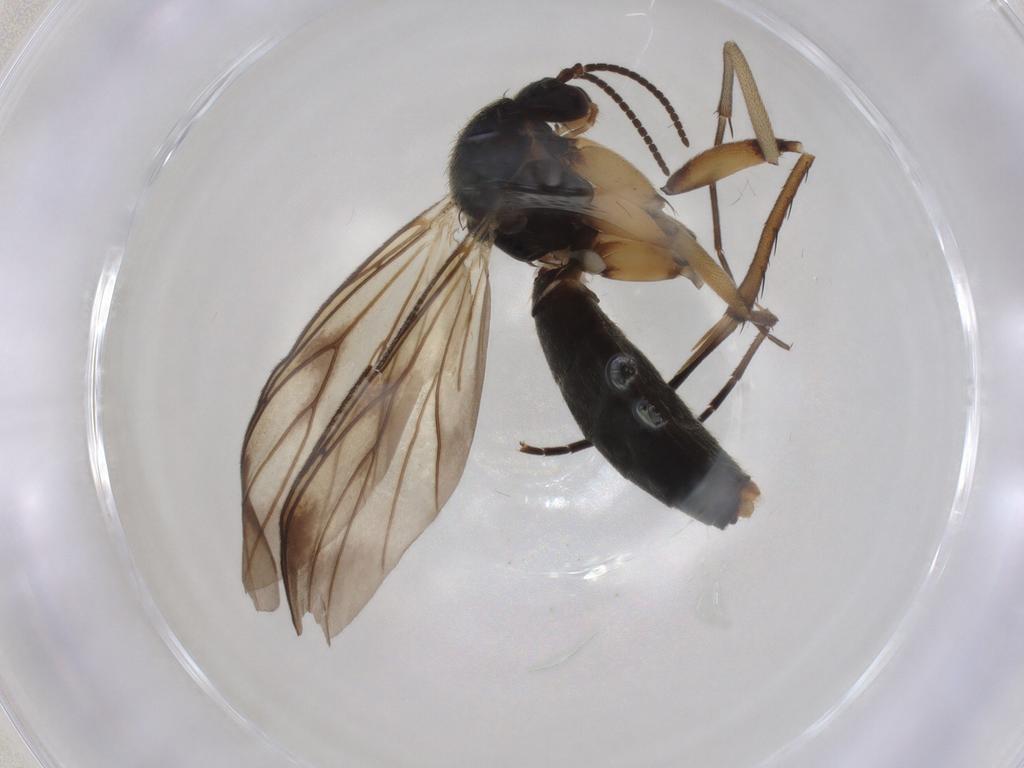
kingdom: Animalia
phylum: Arthropoda
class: Insecta
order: Diptera
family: Mycetophilidae
